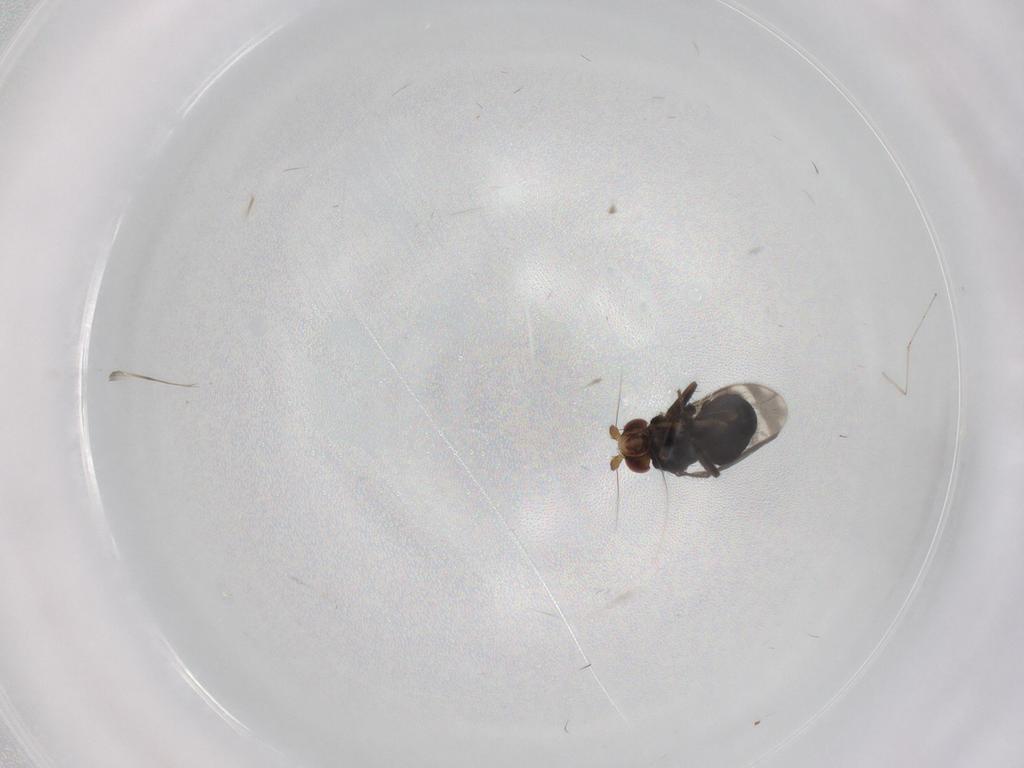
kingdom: Animalia
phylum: Arthropoda
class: Insecta
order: Diptera
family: Sphaeroceridae
